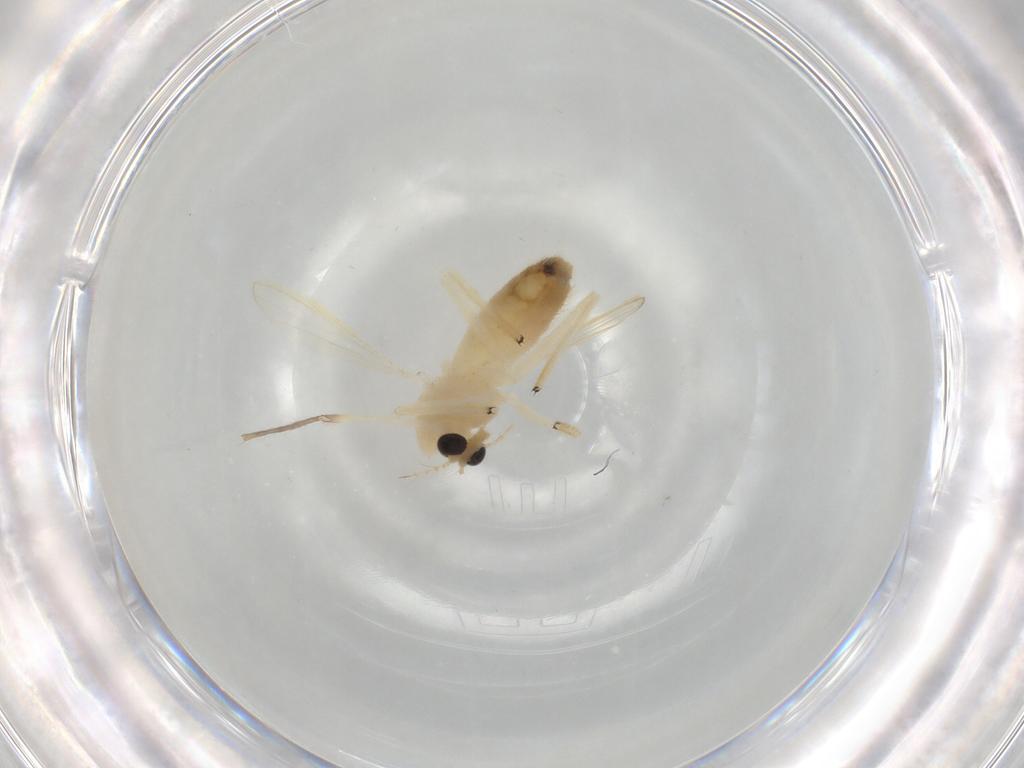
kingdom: Animalia
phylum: Arthropoda
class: Insecta
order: Diptera
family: Chironomidae
